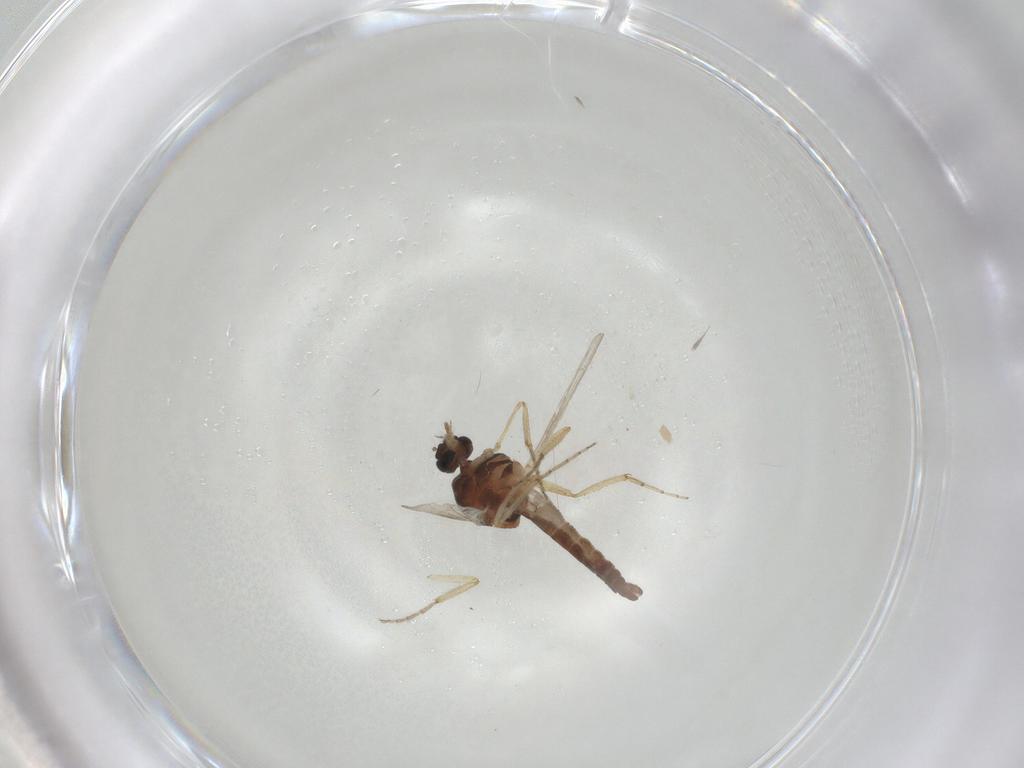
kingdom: Animalia
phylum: Arthropoda
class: Insecta
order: Diptera
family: Ceratopogonidae
